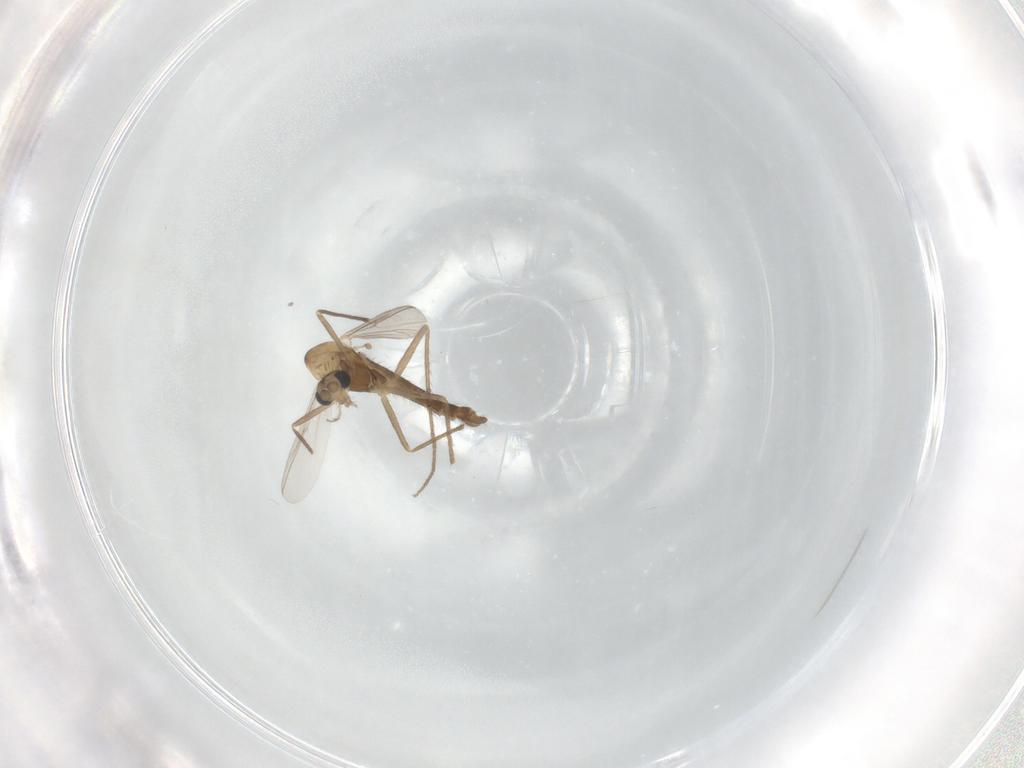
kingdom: Animalia
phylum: Arthropoda
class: Insecta
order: Diptera
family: Chironomidae
